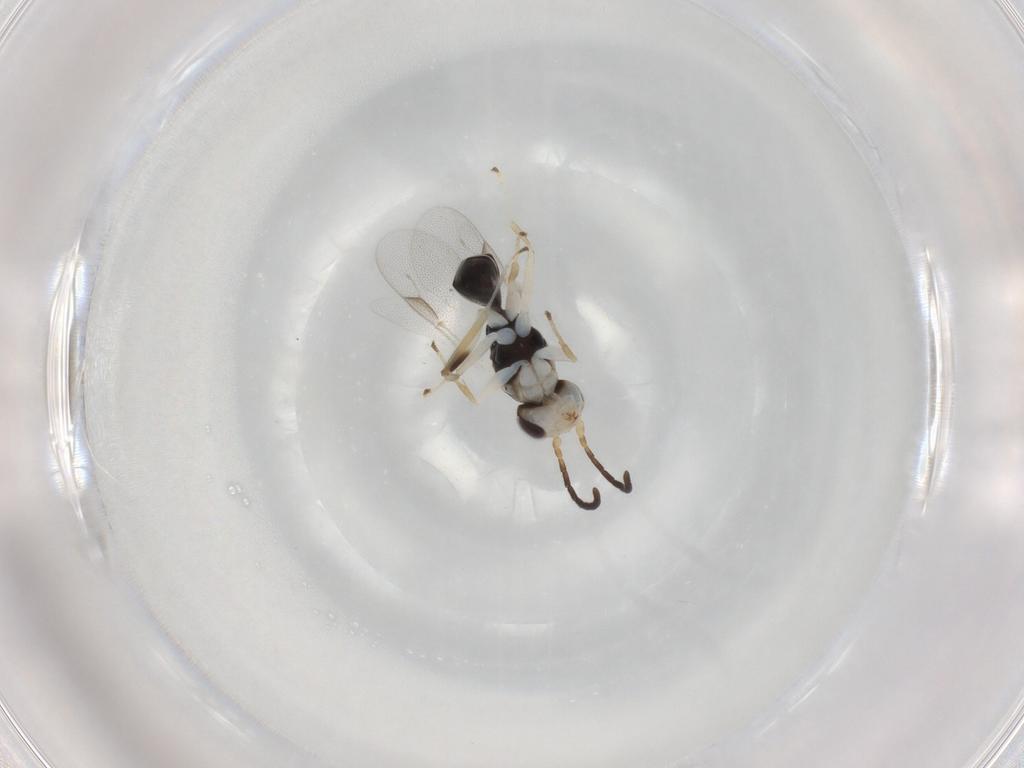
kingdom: Animalia
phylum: Arthropoda
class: Insecta
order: Hymenoptera
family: Dryinidae
